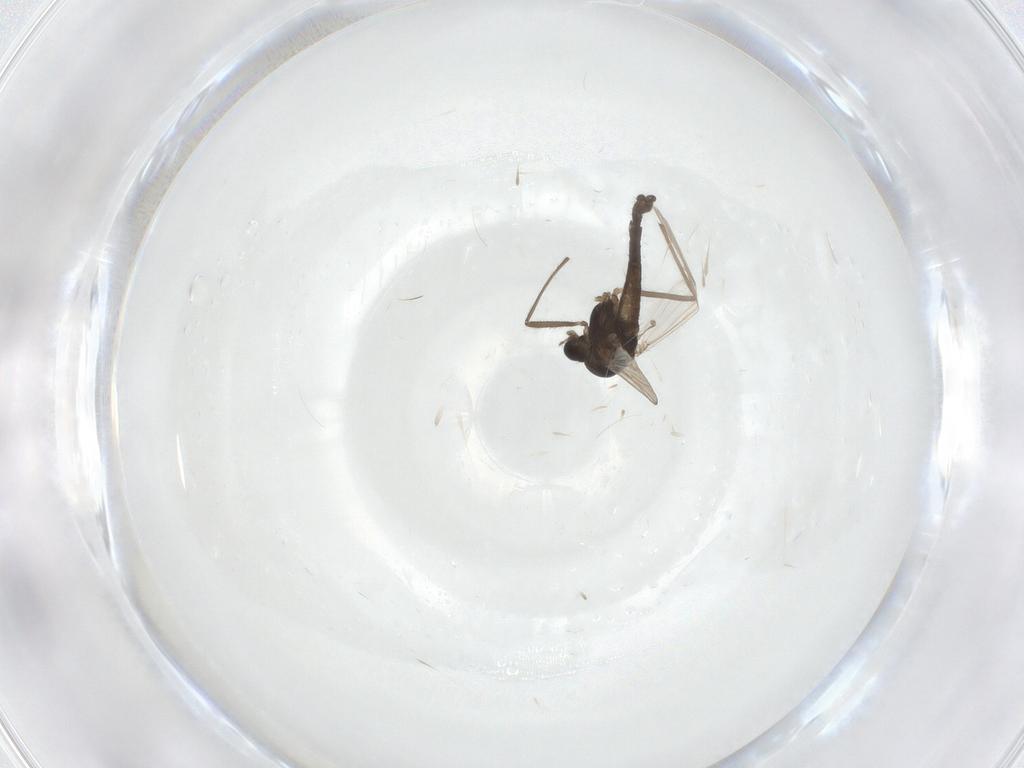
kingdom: Animalia
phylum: Arthropoda
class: Insecta
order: Diptera
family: Chironomidae
